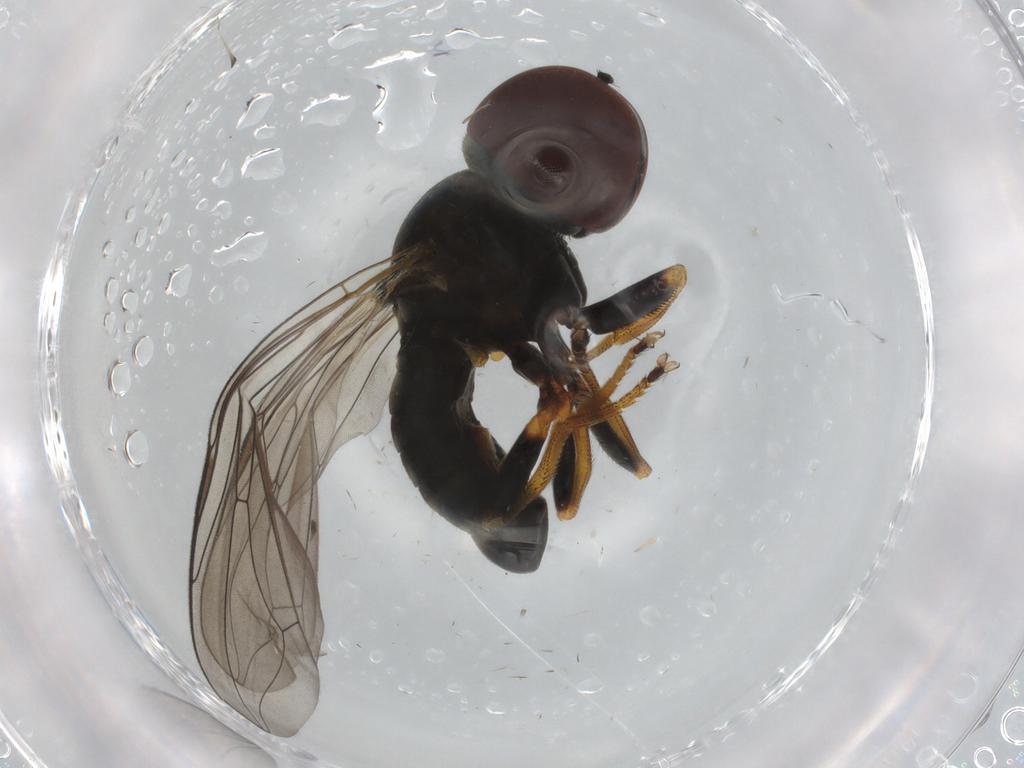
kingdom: Animalia
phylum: Arthropoda
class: Insecta
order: Diptera
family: Pipunculidae
